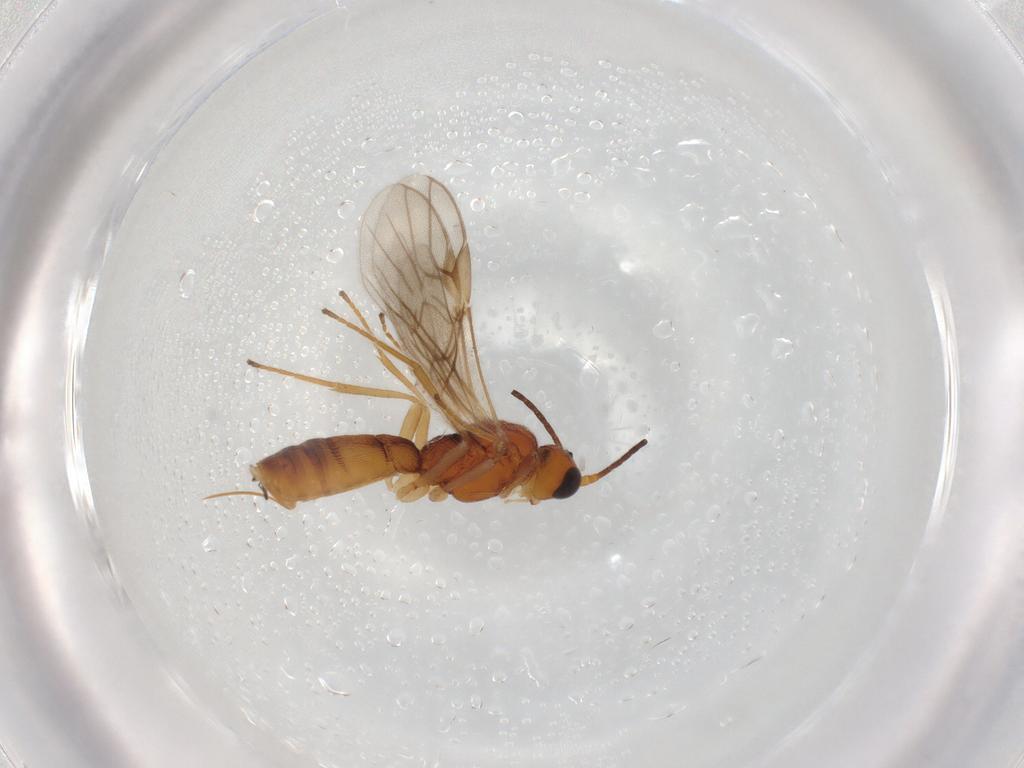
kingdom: Animalia
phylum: Arthropoda
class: Insecta
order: Hymenoptera
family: Braconidae
